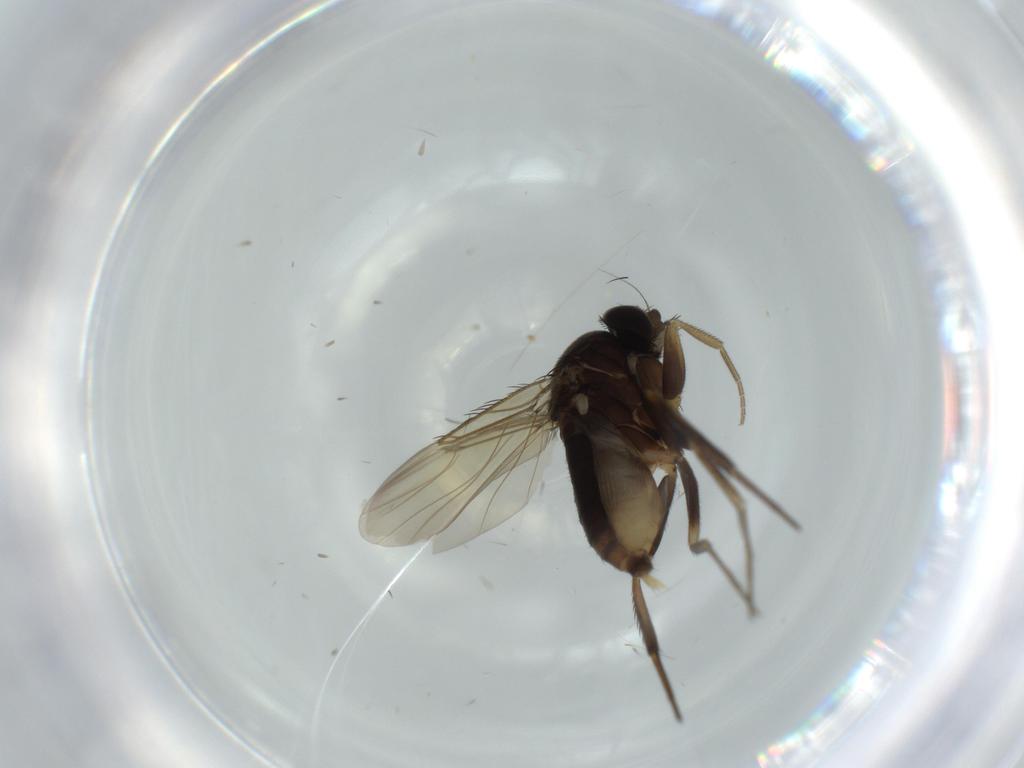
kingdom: Animalia
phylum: Arthropoda
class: Insecta
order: Diptera
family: Phoridae
